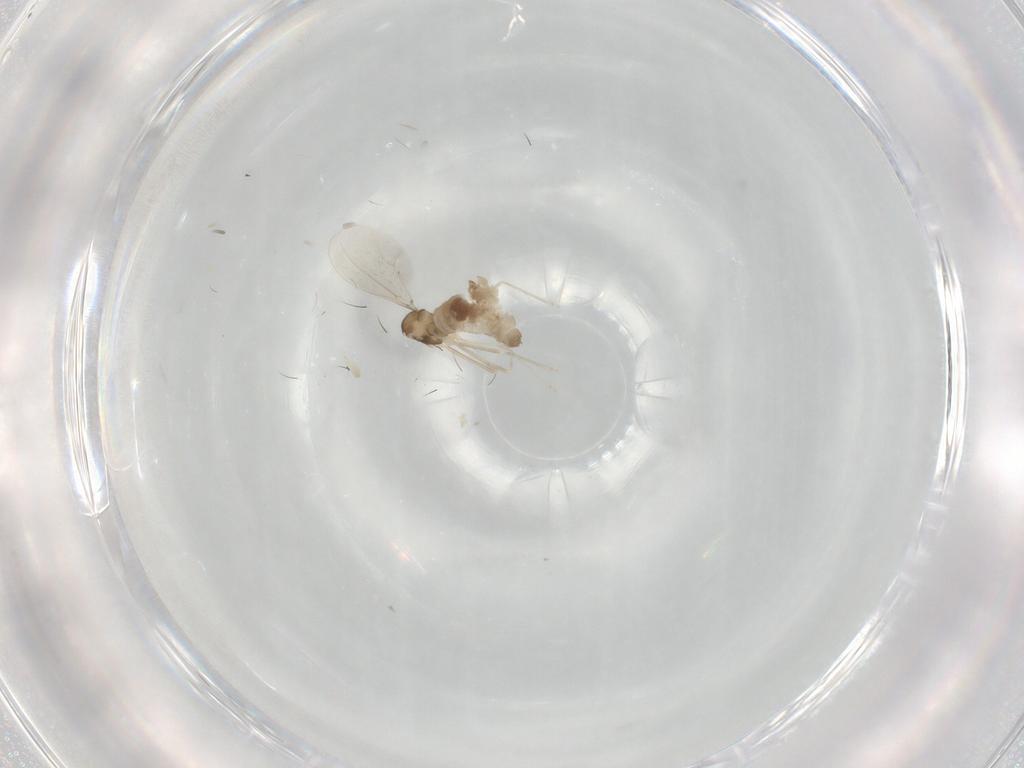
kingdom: Animalia
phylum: Arthropoda
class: Insecta
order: Diptera
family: Cecidomyiidae
